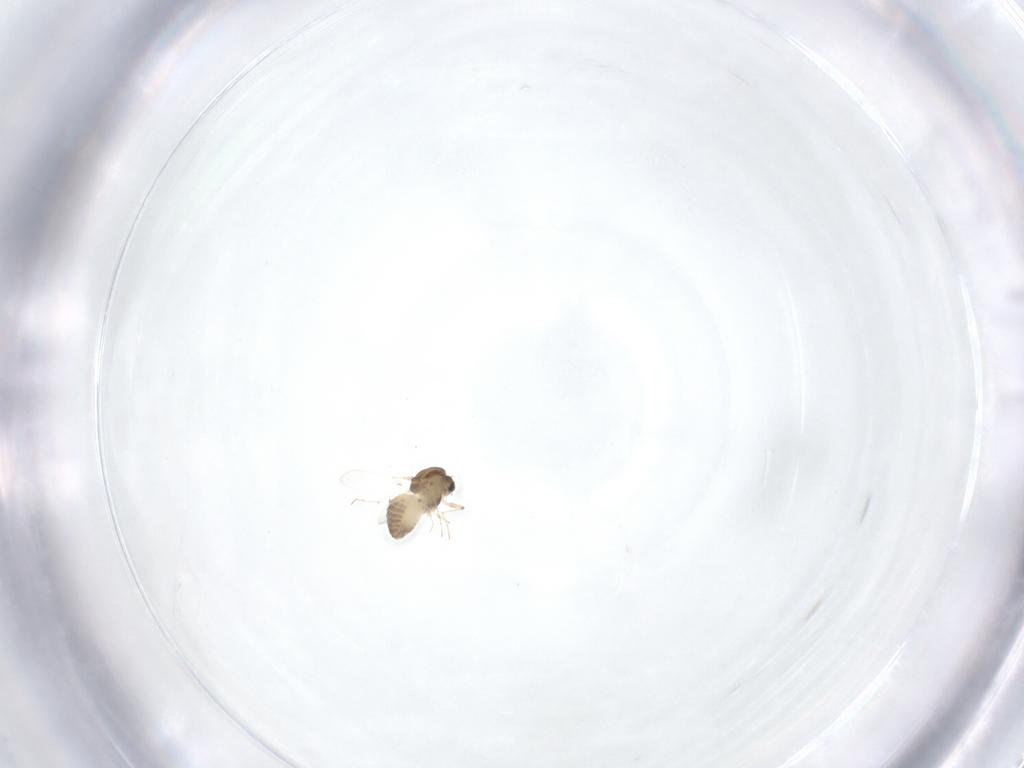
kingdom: Animalia
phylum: Arthropoda
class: Insecta
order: Diptera
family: Chironomidae
